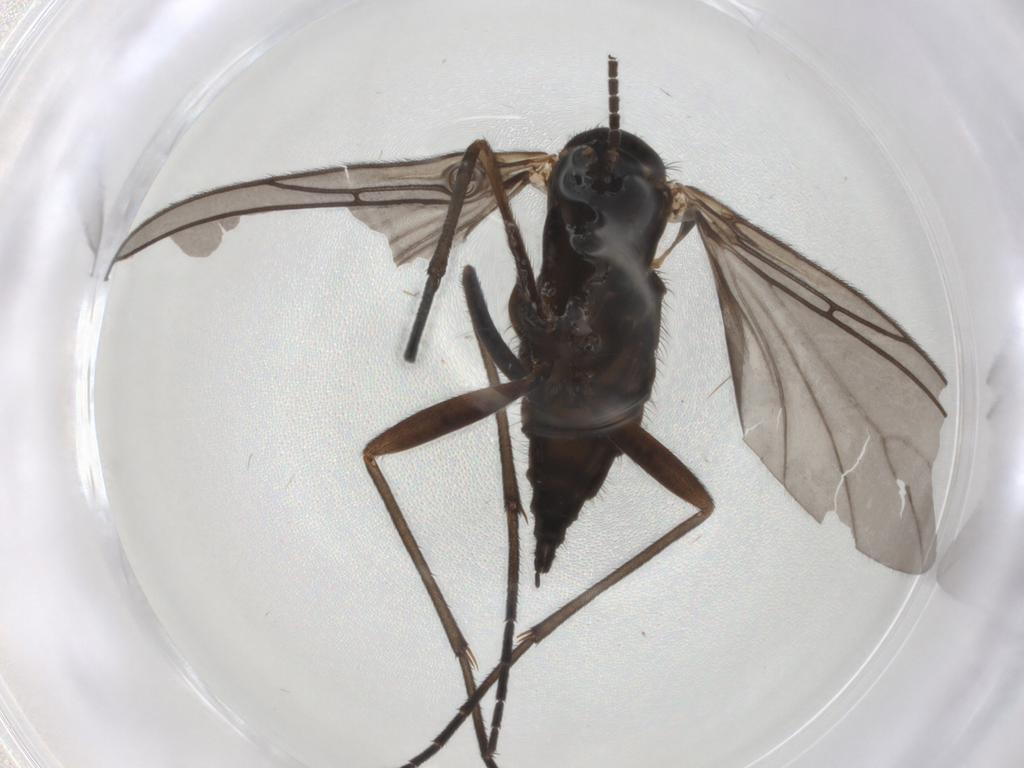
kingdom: Animalia
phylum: Arthropoda
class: Insecta
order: Diptera
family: Sciaridae
